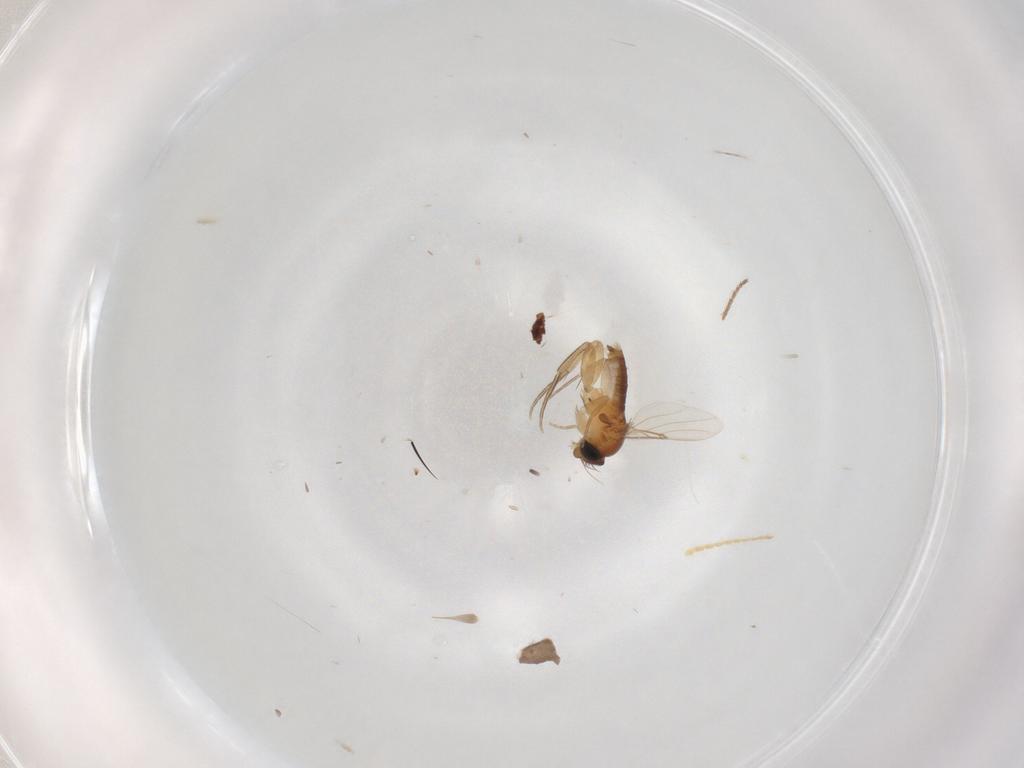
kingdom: Animalia
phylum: Arthropoda
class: Insecta
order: Diptera
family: Phoridae
